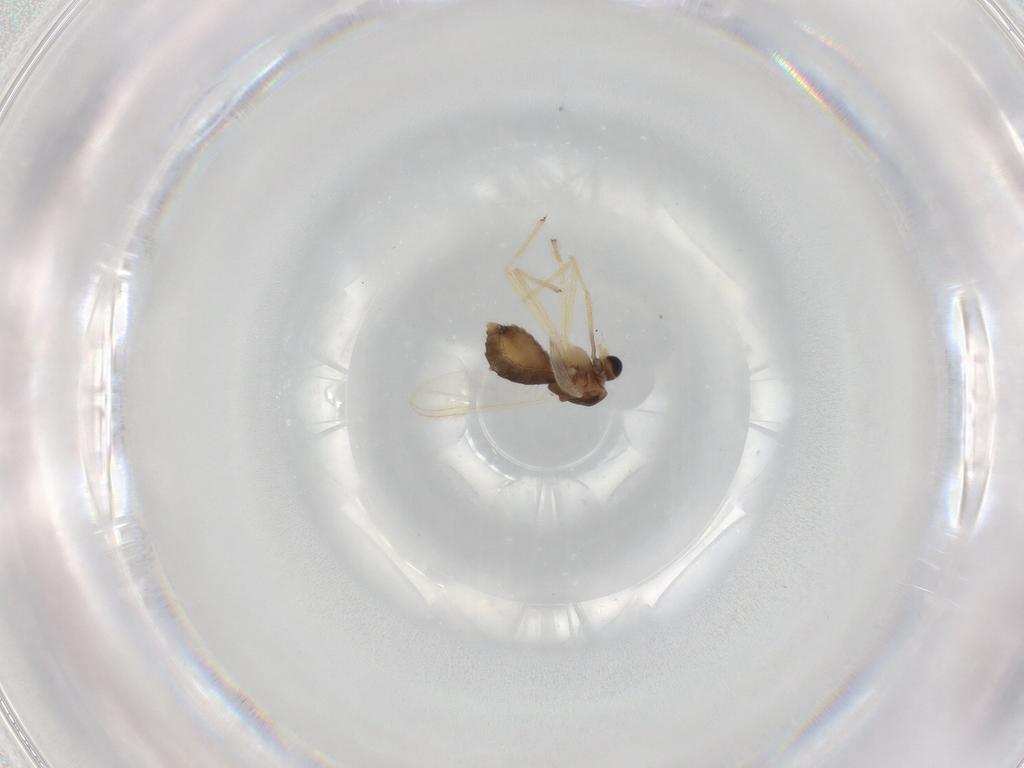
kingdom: Animalia
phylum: Arthropoda
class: Insecta
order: Diptera
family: Chironomidae
